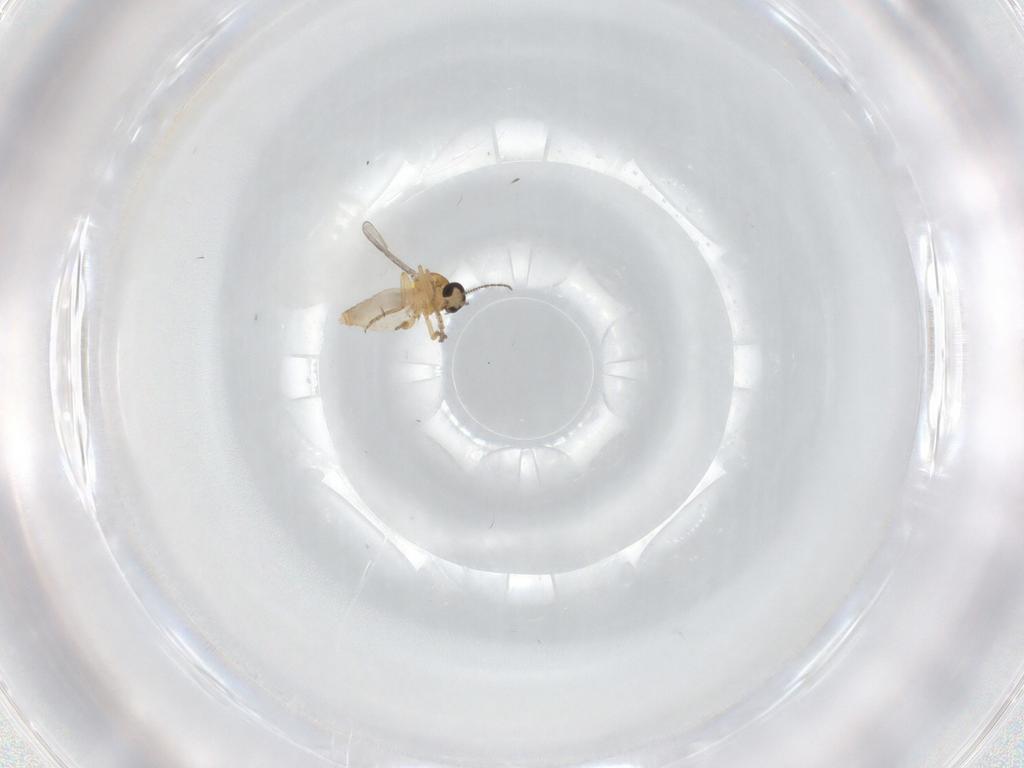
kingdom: Animalia
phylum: Arthropoda
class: Insecta
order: Diptera
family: Ceratopogonidae
